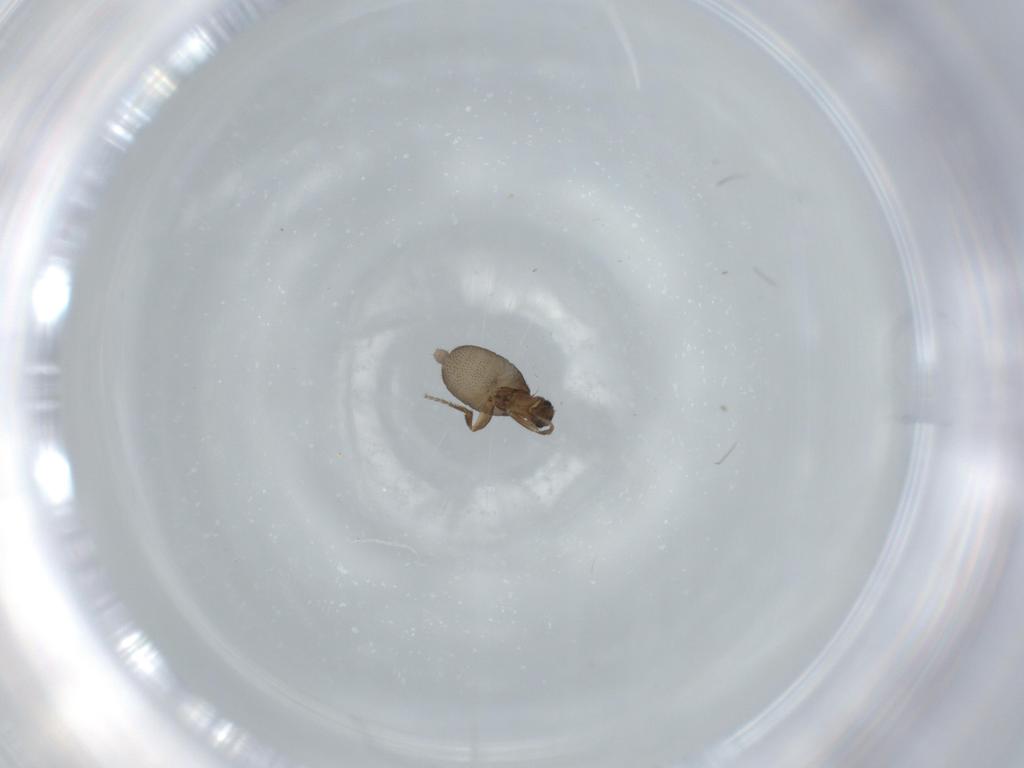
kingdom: Animalia
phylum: Arthropoda
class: Insecta
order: Diptera
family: Phoridae
